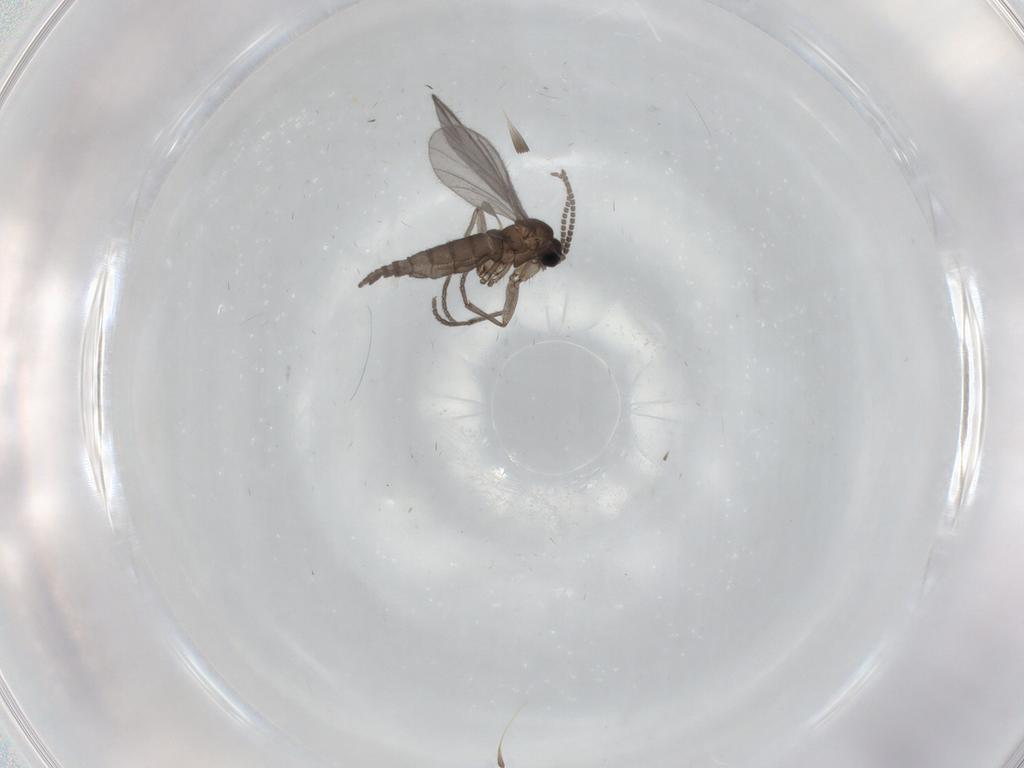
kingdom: Animalia
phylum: Arthropoda
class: Insecta
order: Diptera
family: Sciaridae
